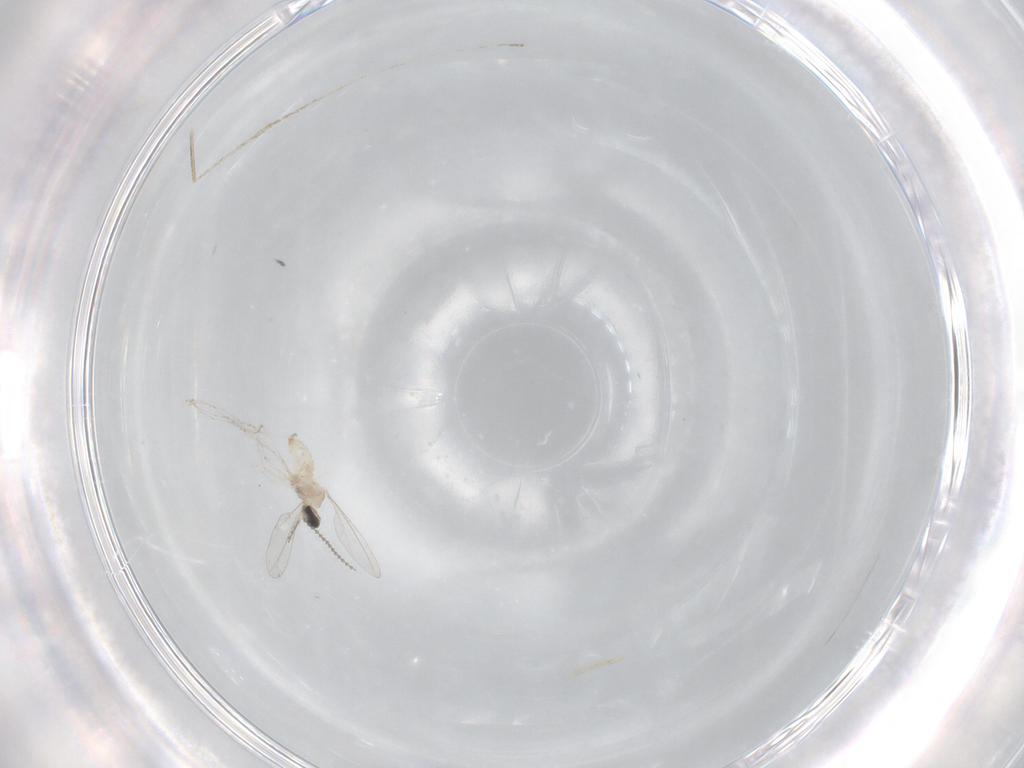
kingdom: Animalia
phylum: Arthropoda
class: Insecta
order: Diptera
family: Cecidomyiidae
